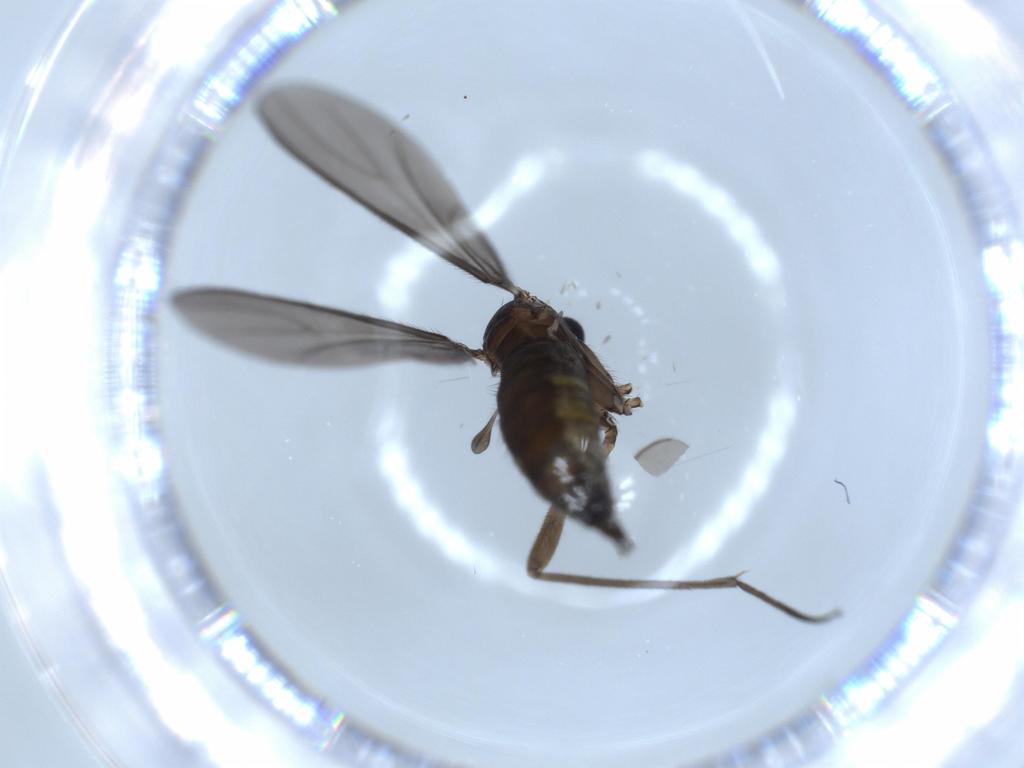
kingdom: Animalia
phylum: Arthropoda
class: Insecta
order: Diptera
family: Sciaridae
